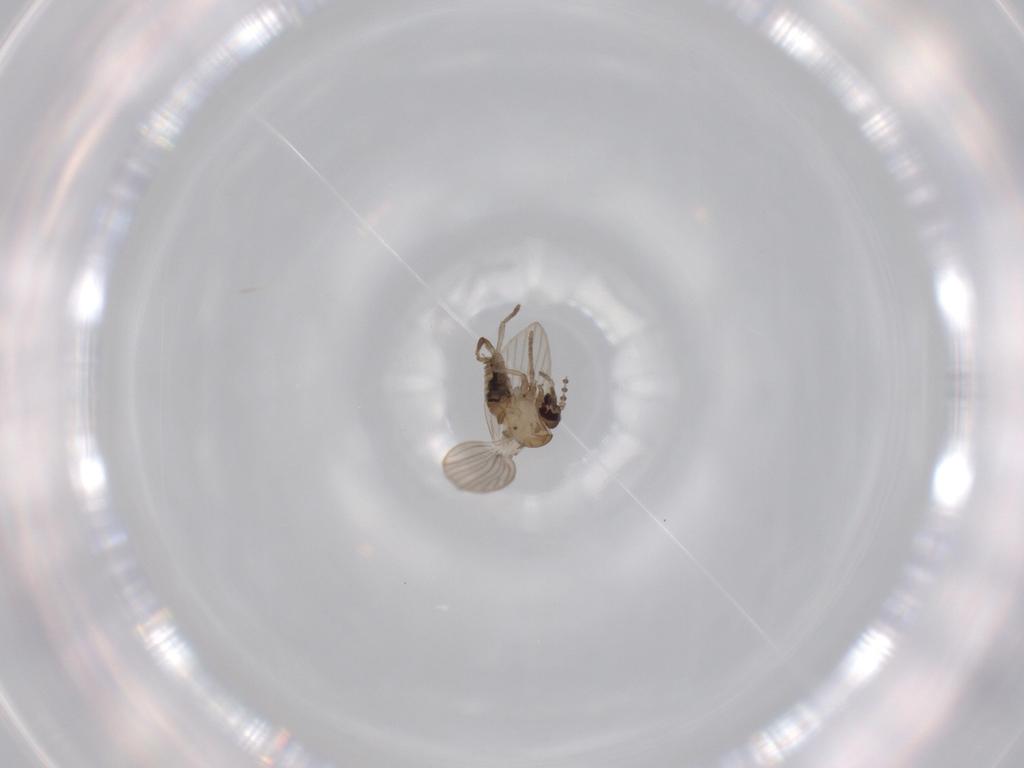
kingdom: Animalia
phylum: Arthropoda
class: Insecta
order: Diptera
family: Psychodidae
